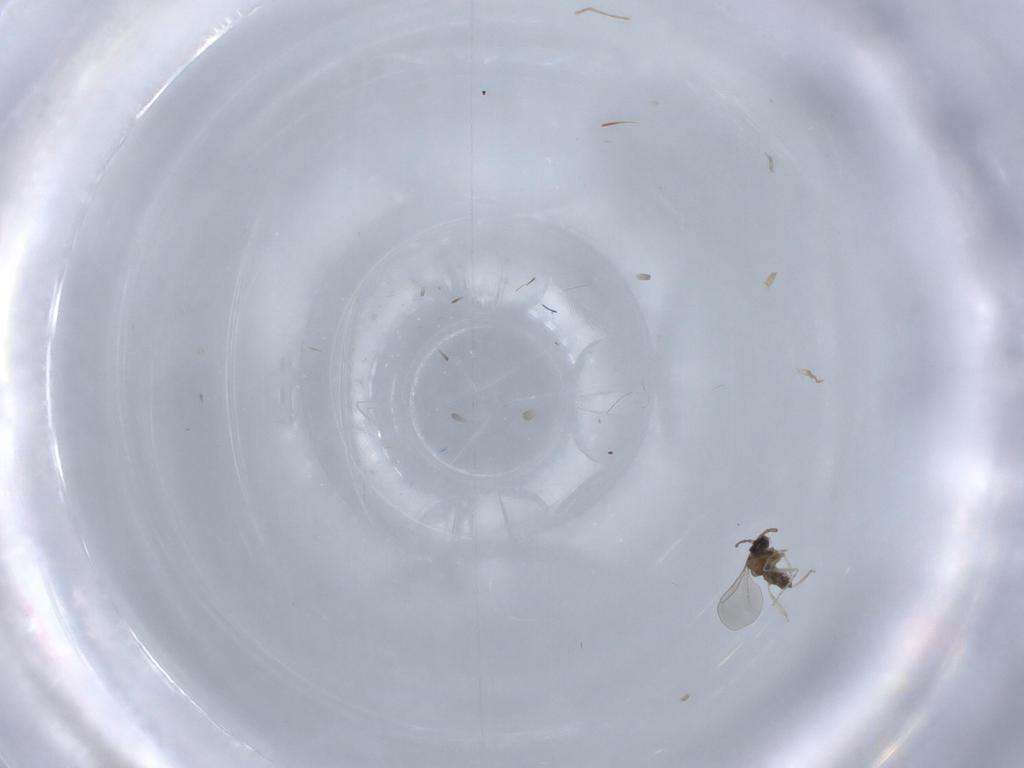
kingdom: Animalia
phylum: Arthropoda
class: Insecta
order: Diptera
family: Cecidomyiidae
